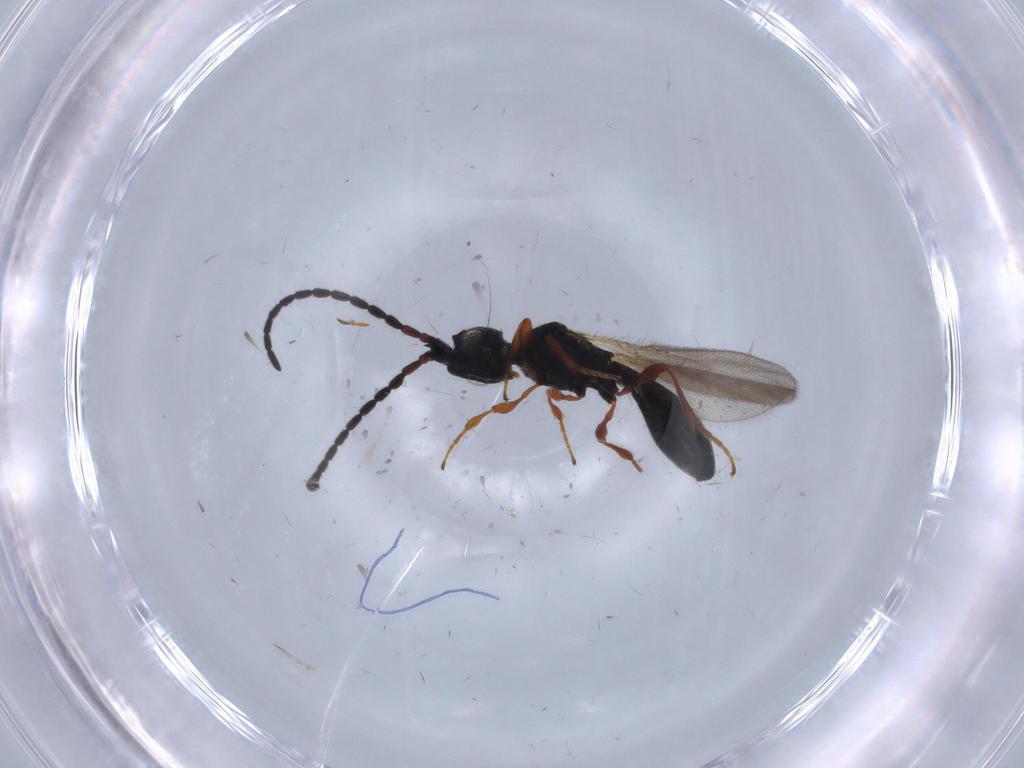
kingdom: Animalia
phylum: Arthropoda
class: Insecta
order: Hymenoptera
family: Diapriidae
